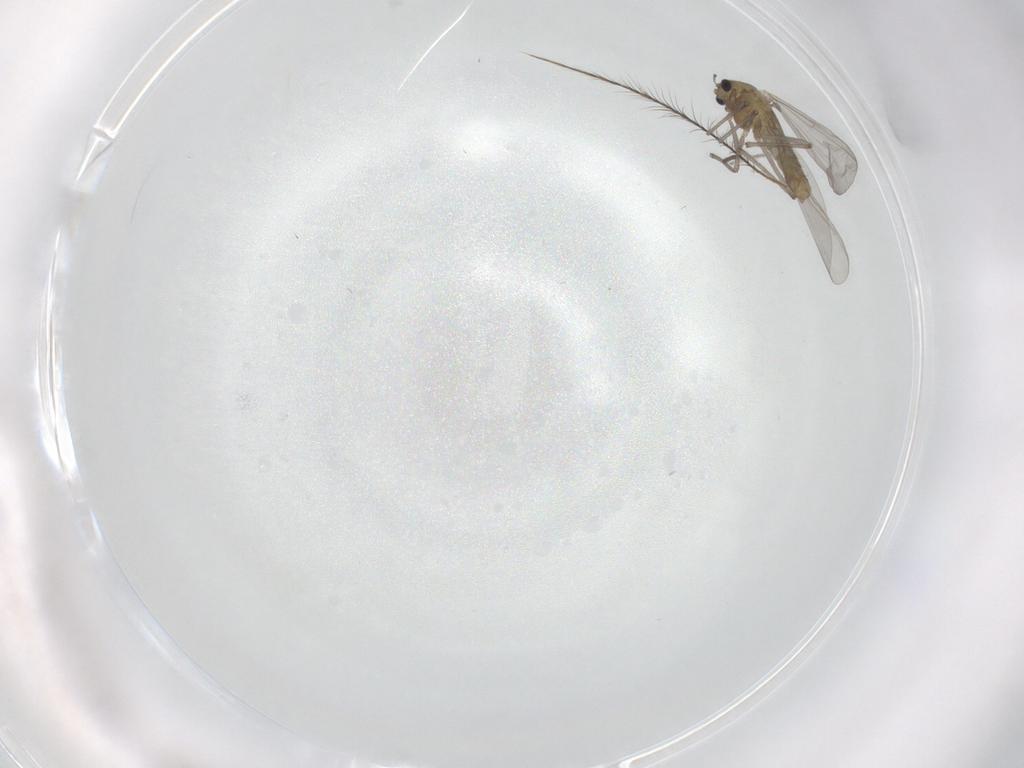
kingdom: Animalia
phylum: Arthropoda
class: Insecta
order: Diptera
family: Chironomidae
